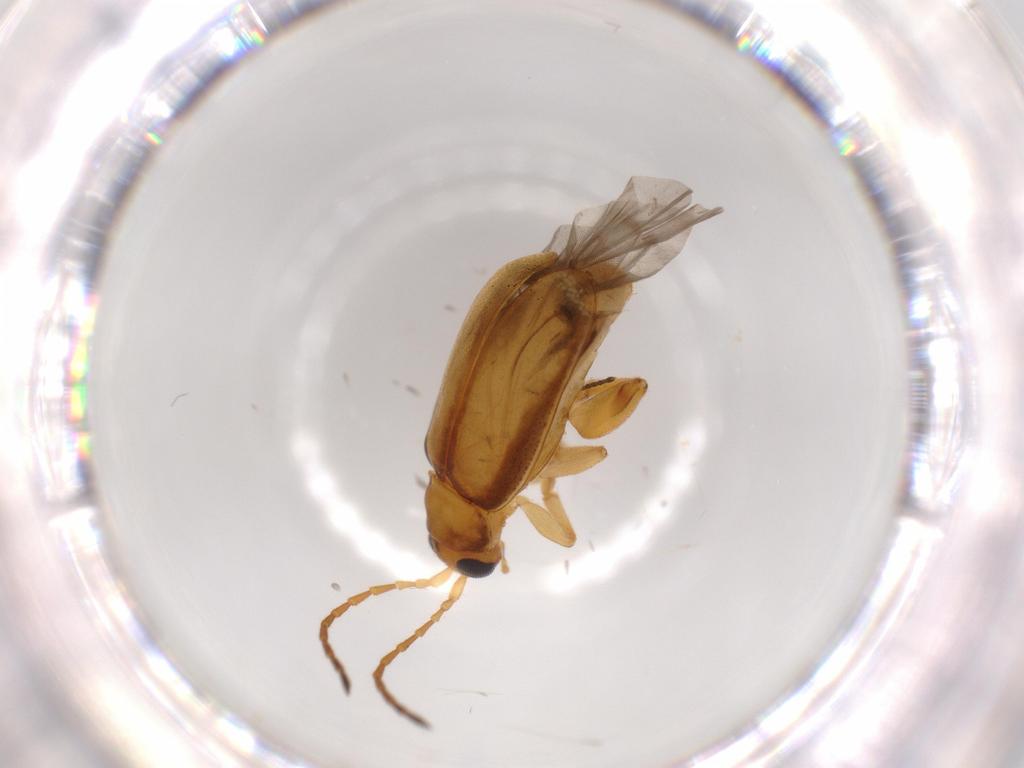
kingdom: Animalia
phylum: Arthropoda
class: Insecta
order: Coleoptera
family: Chrysomelidae
